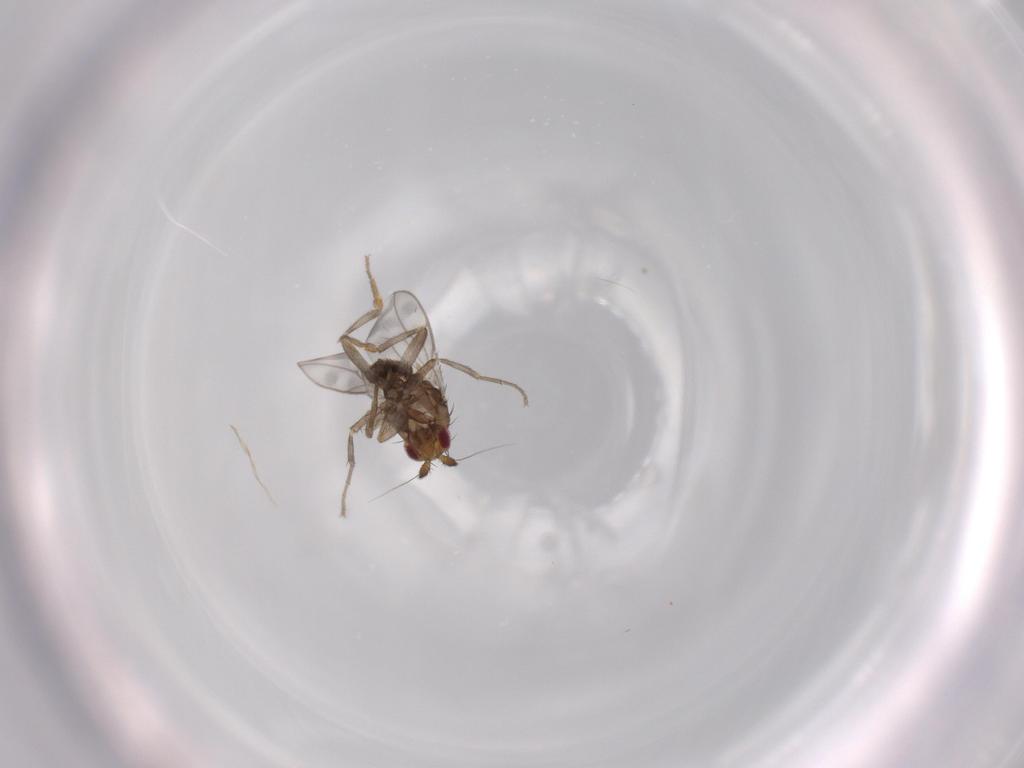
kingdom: Animalia
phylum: Arthropoda
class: Insecta
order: Diptera
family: Sphaeroceridae
